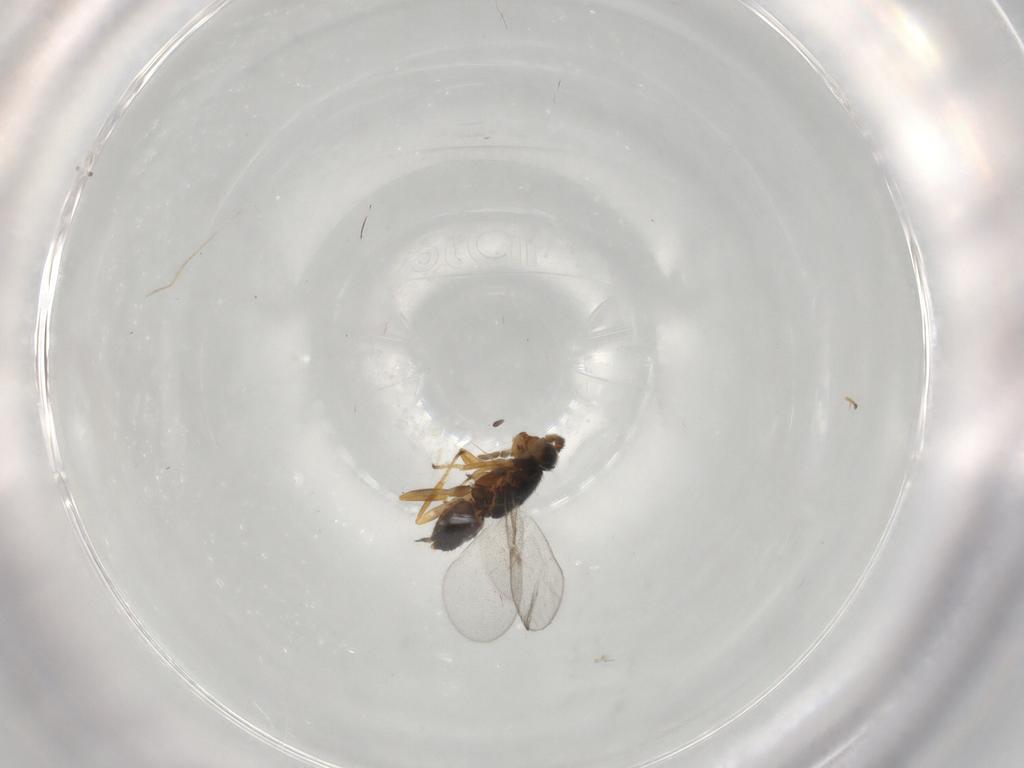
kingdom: Animalia
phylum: Arthropoda
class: Insecta
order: Hymenoptera
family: Encyrtidae
